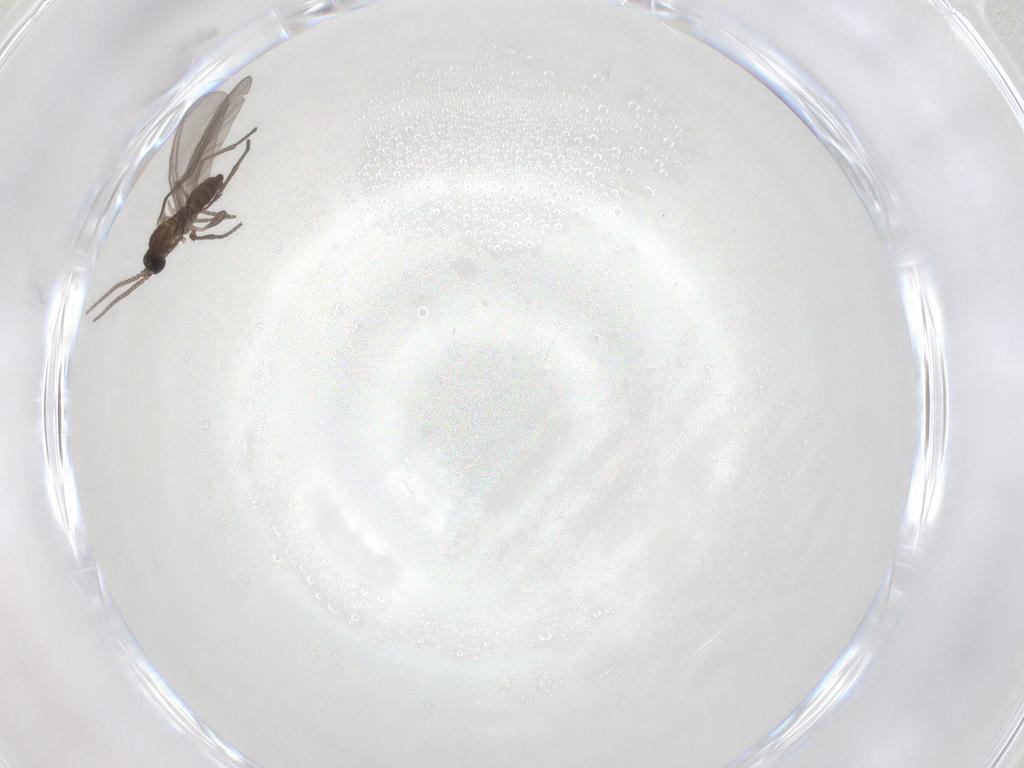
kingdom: Animalia
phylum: Arthropoda
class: Insecta
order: Diptera
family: Sciaridae
